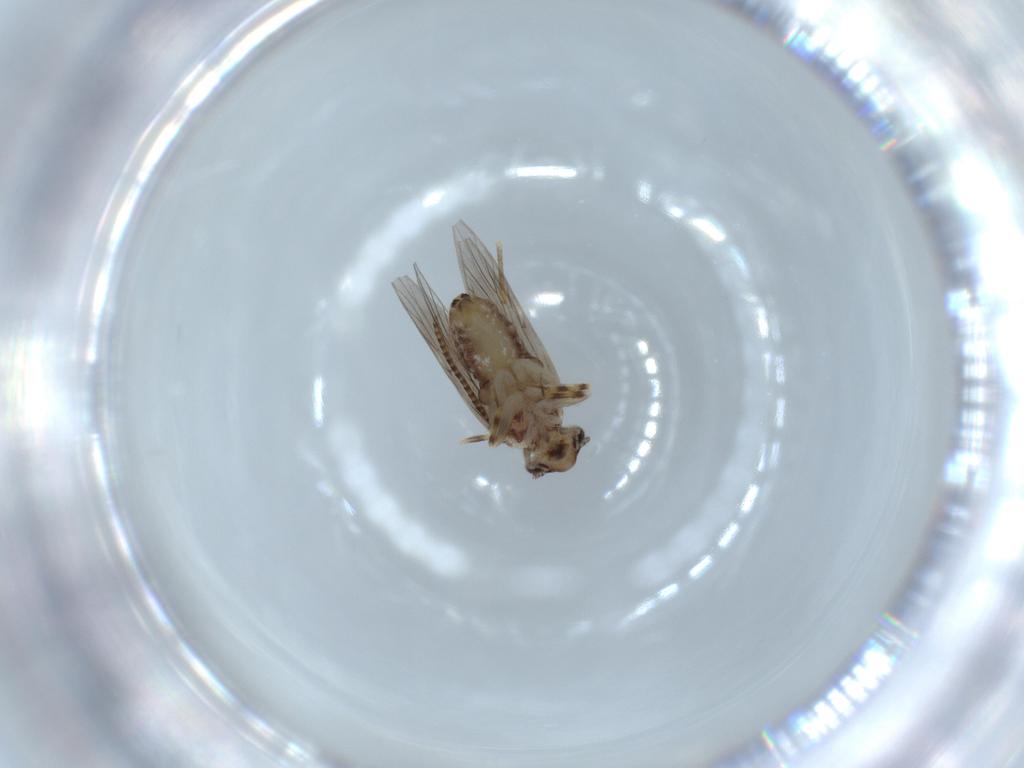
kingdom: Animalia
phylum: Arthropoda
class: Insecta
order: Psocodea
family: Lepidopsocidae
